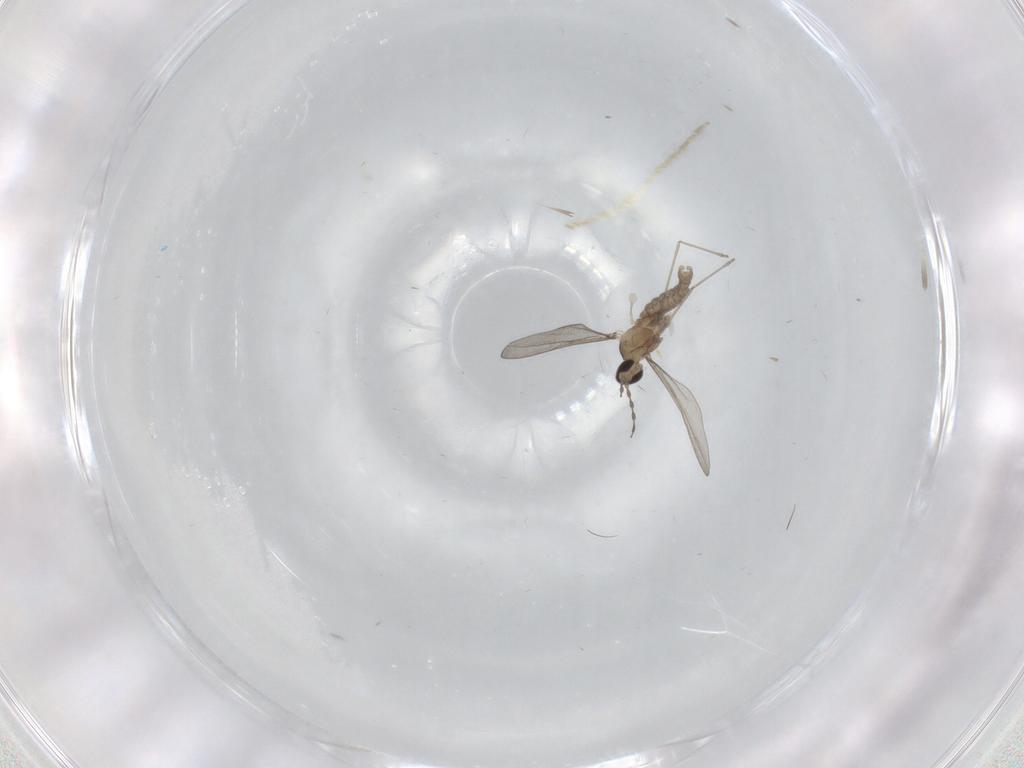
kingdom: Animalia
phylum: Arthropoda
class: Insecta
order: Diptera
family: Cecidomyiidae
